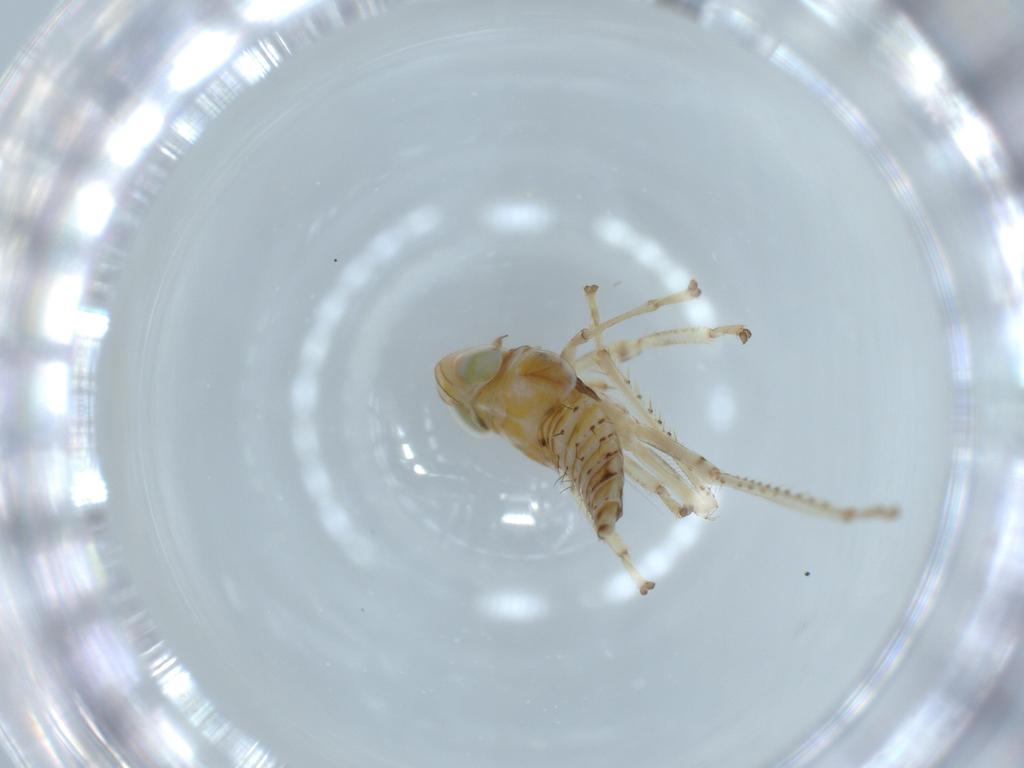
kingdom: Animalia
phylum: Arthropoda
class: Insecta
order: Hemiptera
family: Cicadellidae
